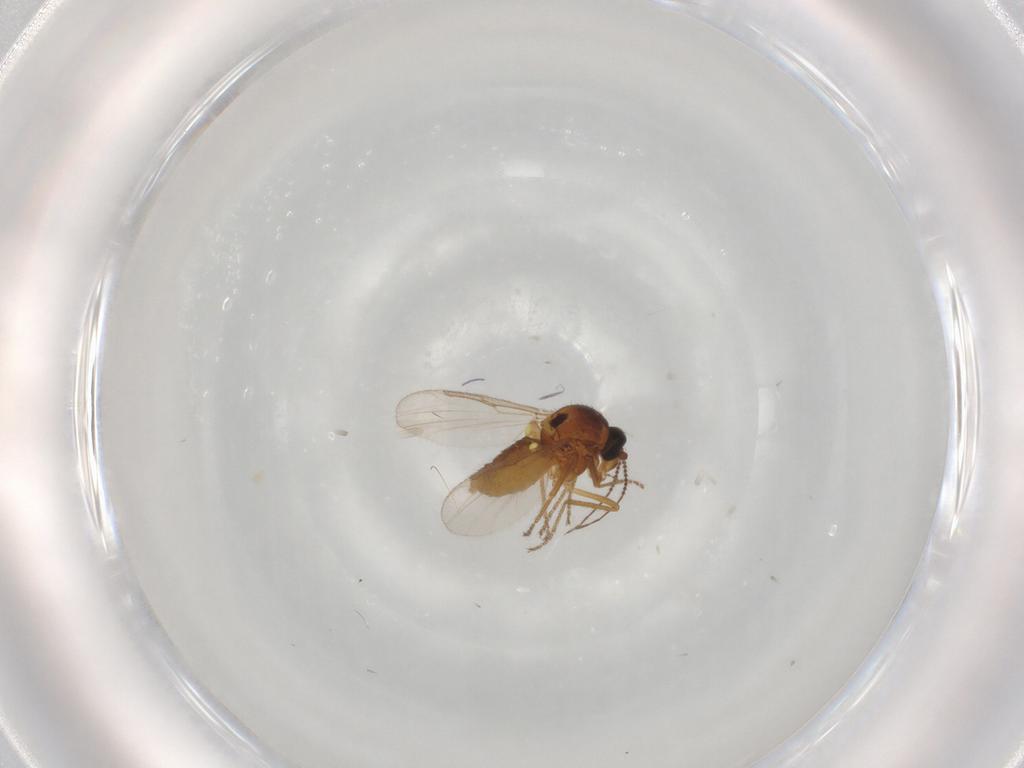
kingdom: Animalia
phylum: Arthropoda
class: Insecta
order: Diptera
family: Ceratopogonidae
